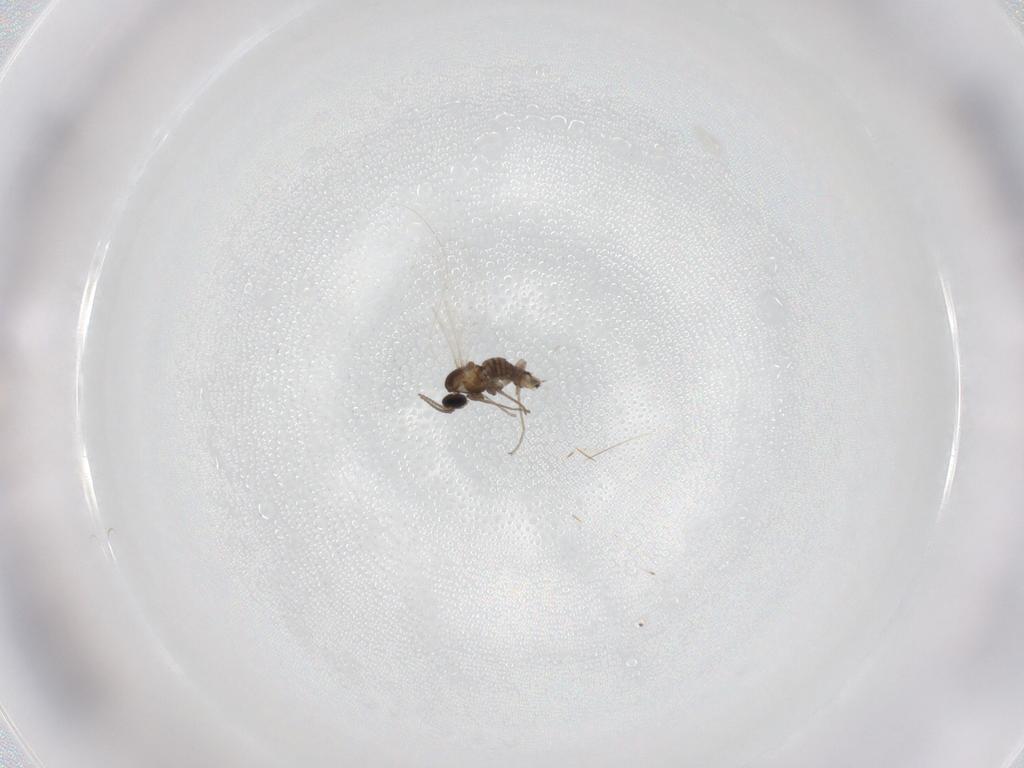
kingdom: Animalia
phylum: Arthropoda
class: Insecta
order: Diptera
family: Cecidomyiidae
